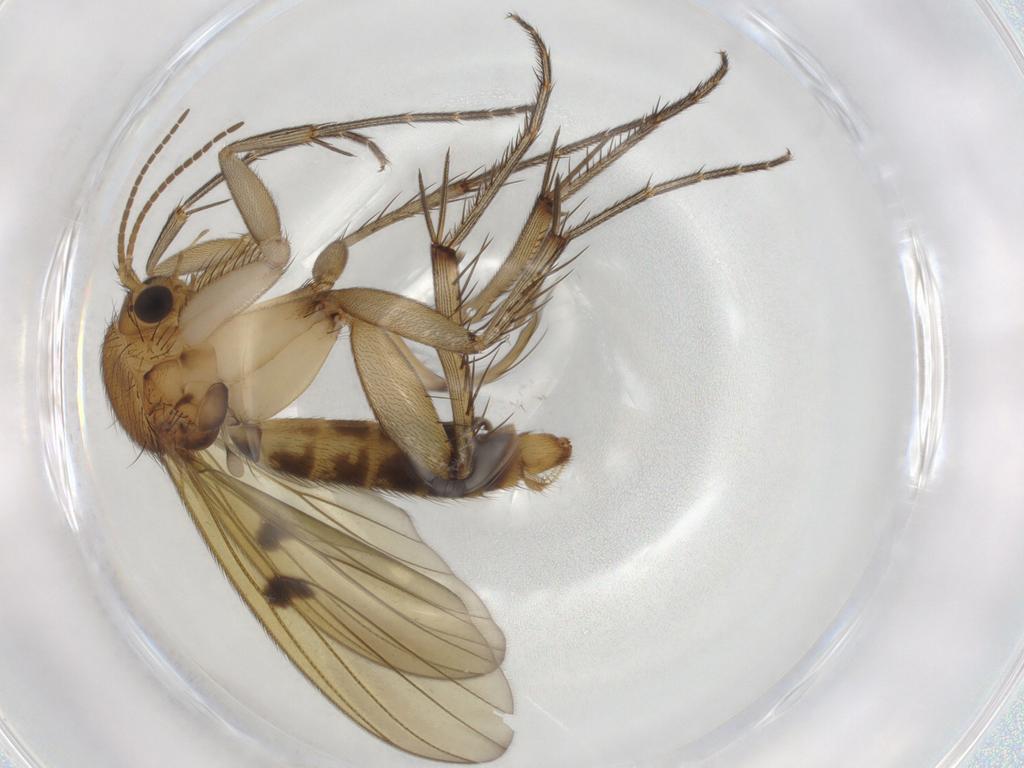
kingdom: Animalia
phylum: Arthropoda
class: Insecta
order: Diptera
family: Mycetophilidae
